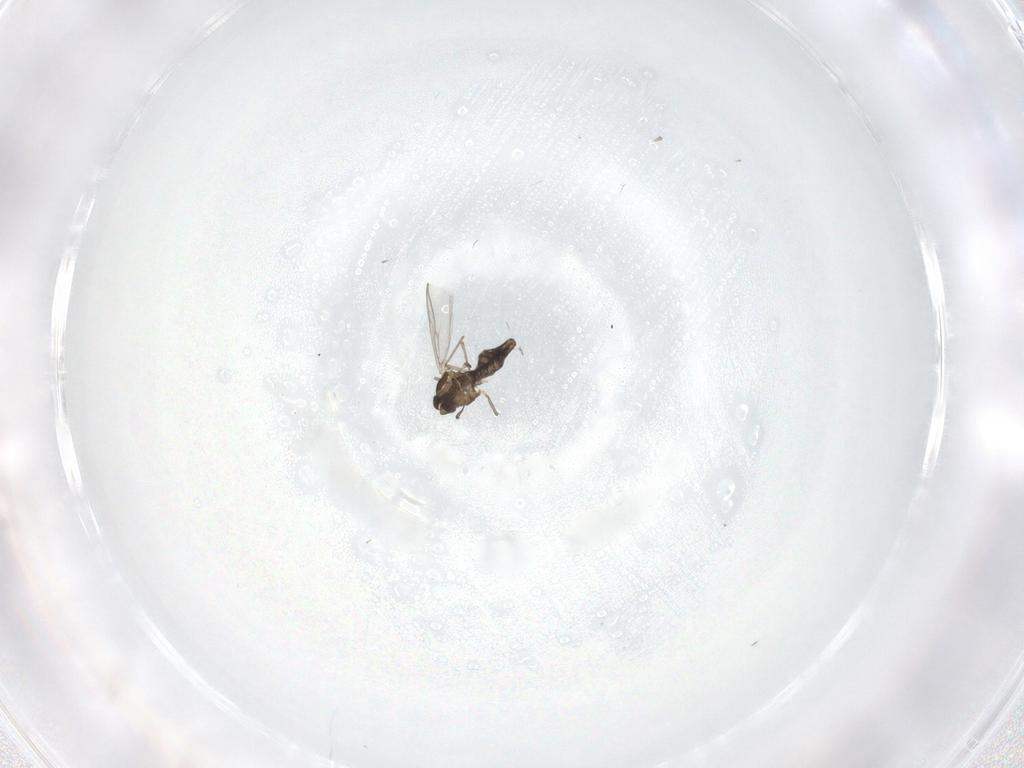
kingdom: Animalia
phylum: Arthropoda
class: Insecta
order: Diptera
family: Chironomidae
